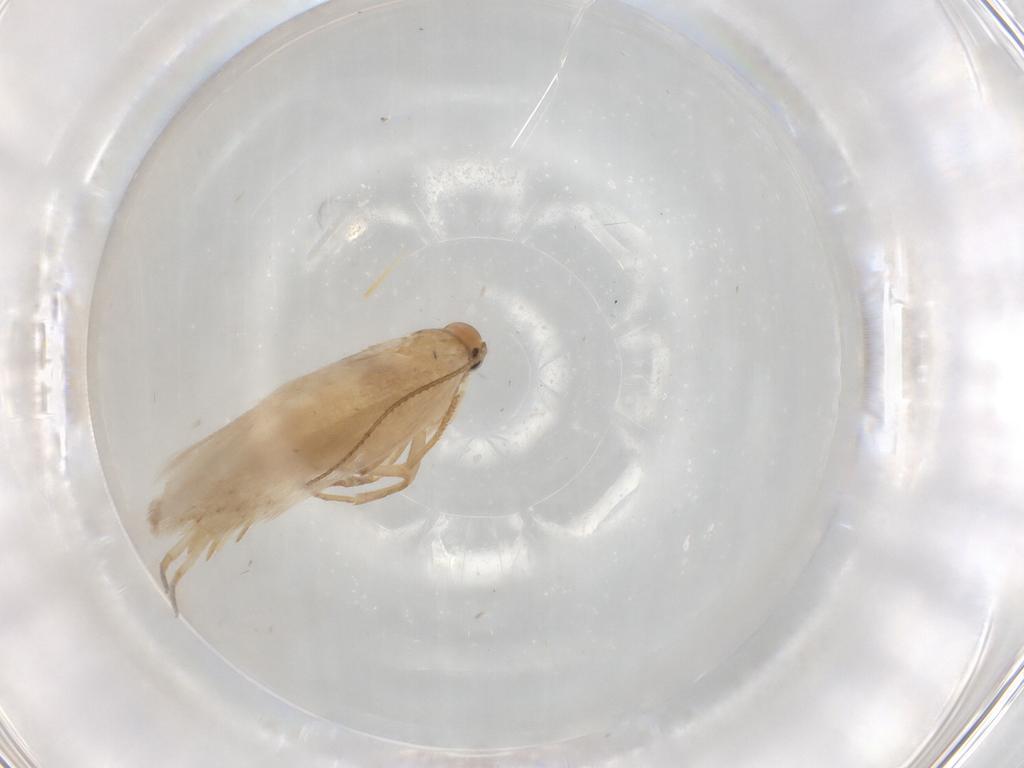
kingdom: Animalia
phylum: Arthropoda
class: Insecta
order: Lepidoptera
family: Gelechiidae
